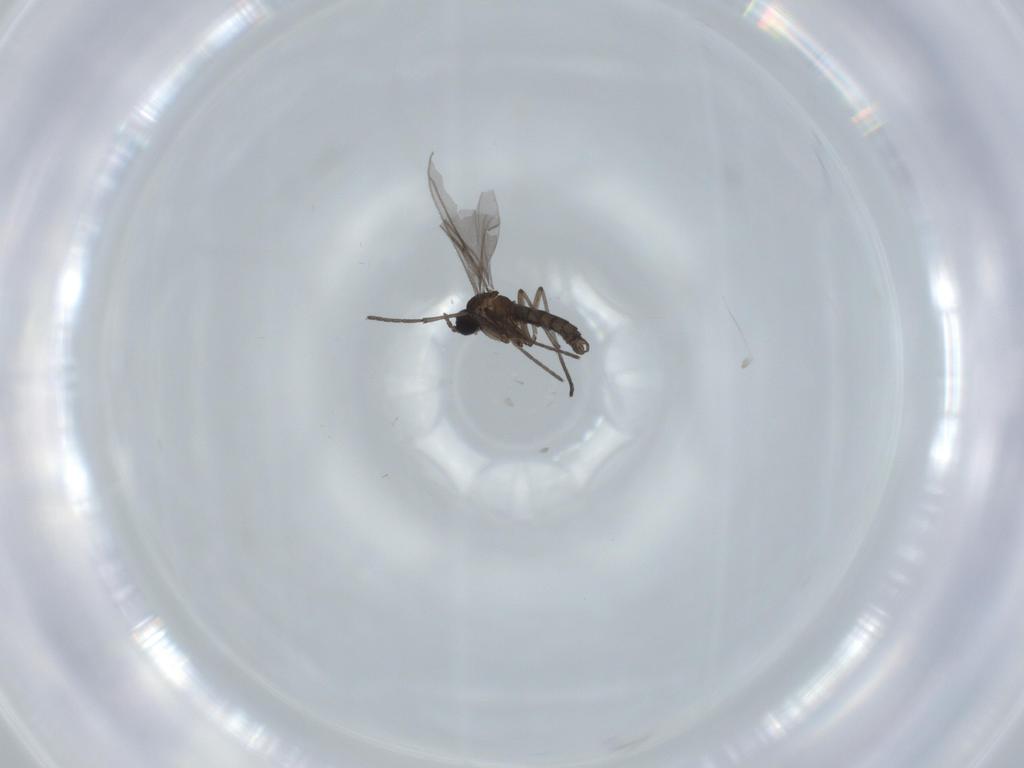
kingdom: Animalia
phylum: Arthropoda
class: Insecta
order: Diptera
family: Sciaridae
